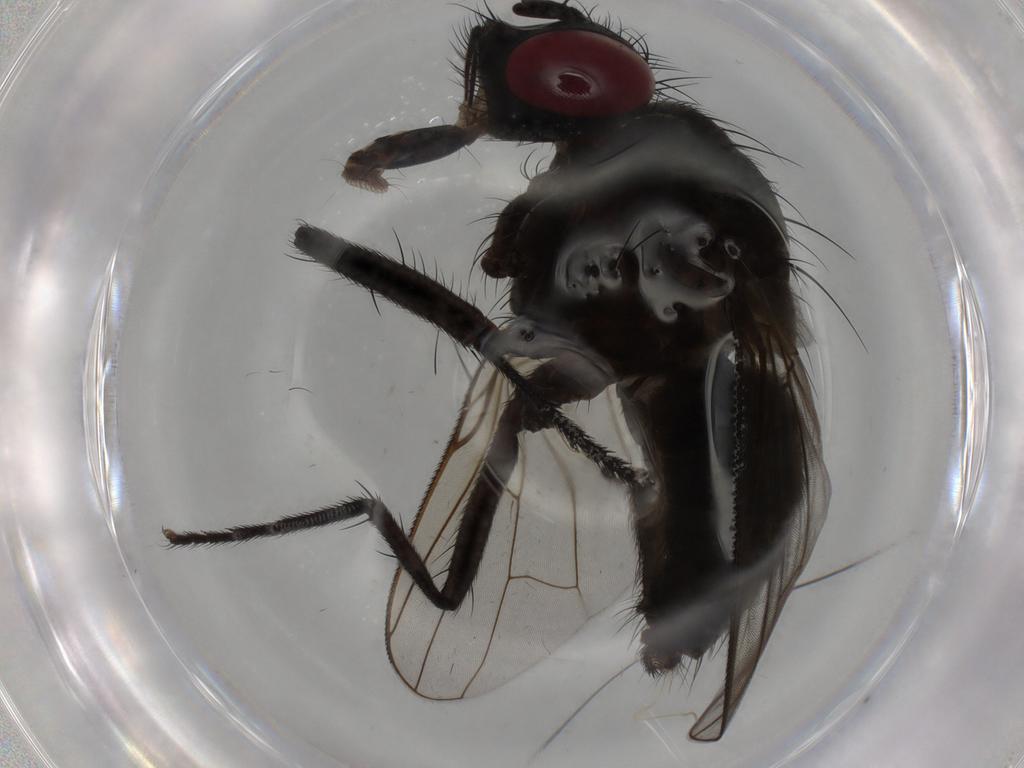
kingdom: Animalia
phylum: Arthropoda
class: Insecta
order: Diptera
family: Muscidae
